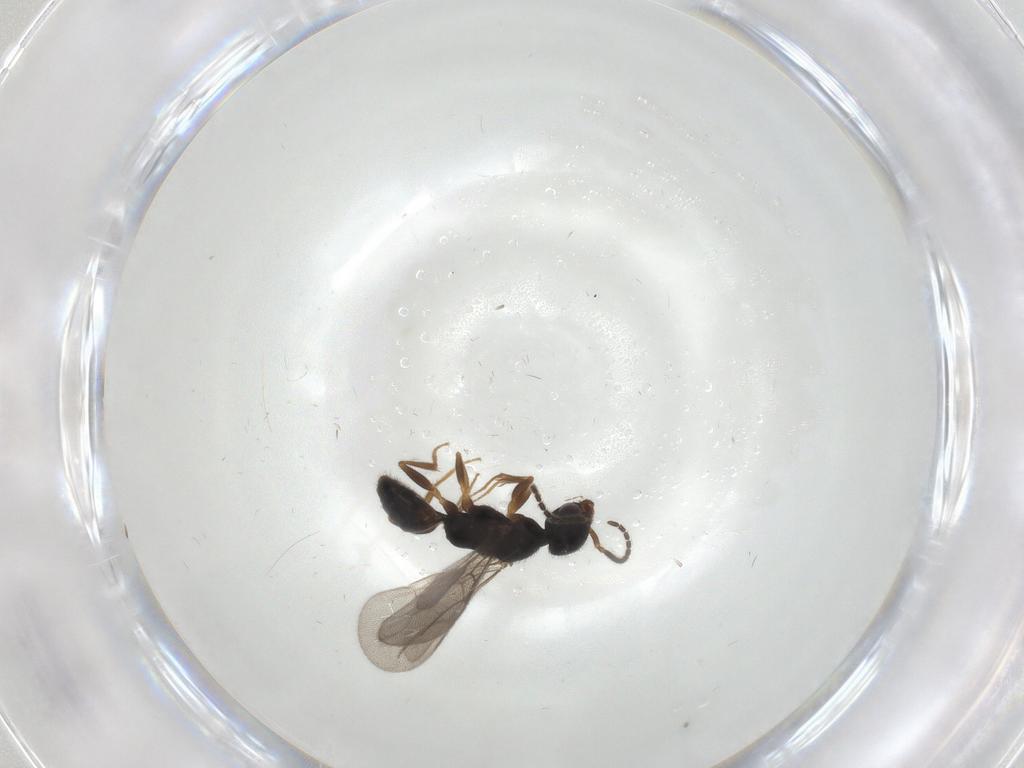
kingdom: Animalia
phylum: Arthropoda
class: Insecta
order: Hymenoptera
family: Bethylidae
